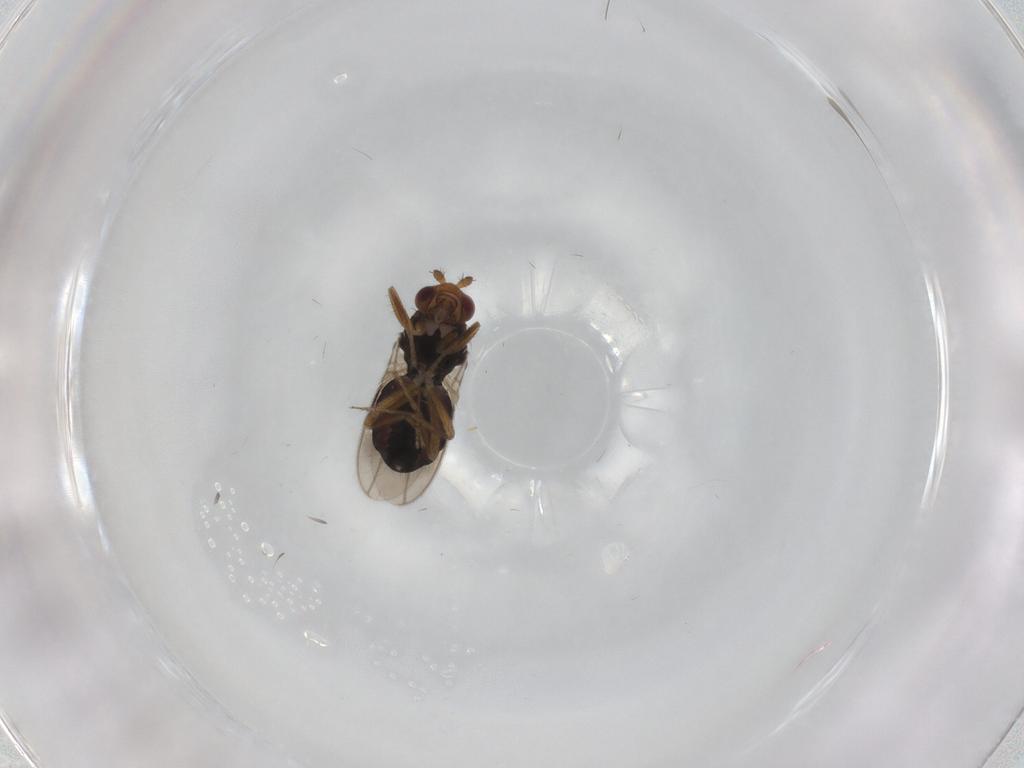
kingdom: Animalia
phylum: Arthropoda
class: Insecta
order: Diptera
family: Sphaeroceridae
